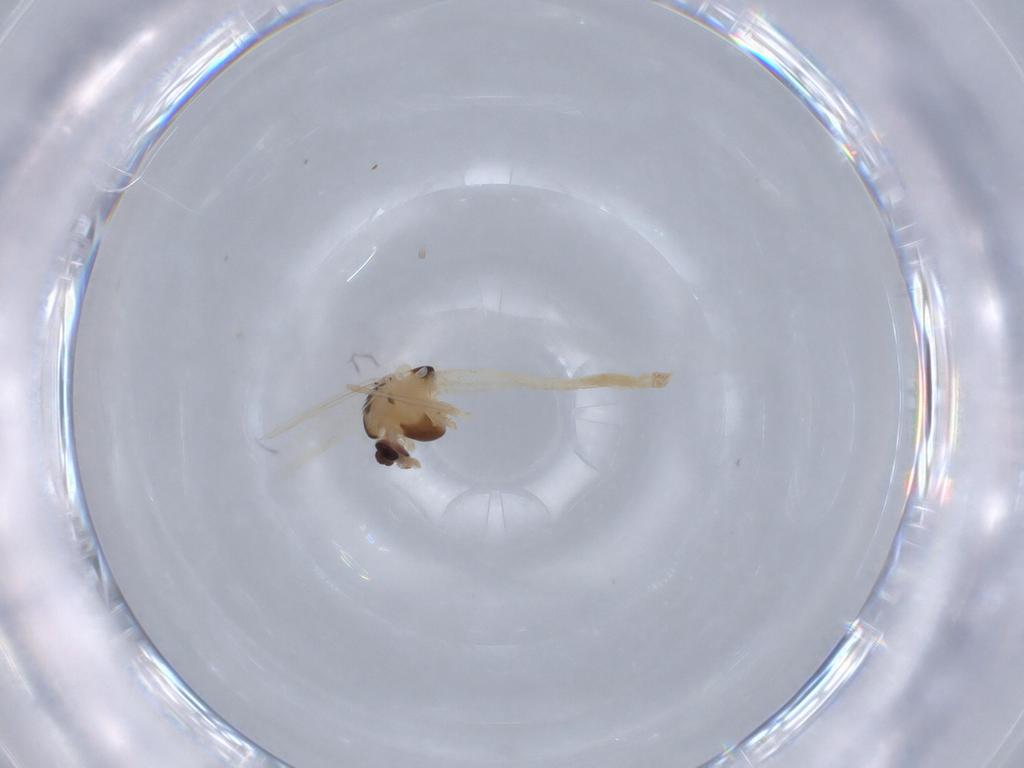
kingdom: Animalia
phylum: Arthropoda
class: Insecta
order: Diptera
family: Chironomidae
